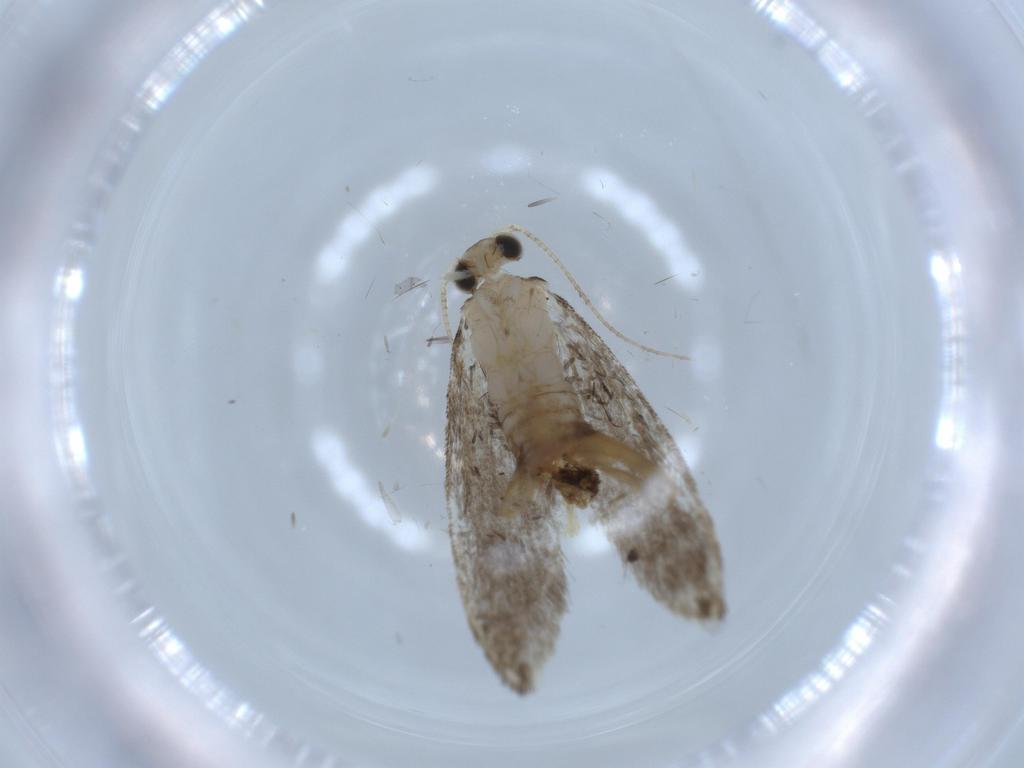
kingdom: Animalia
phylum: Arthropoda
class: Insecta
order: Lepidoptera
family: Tineidae
